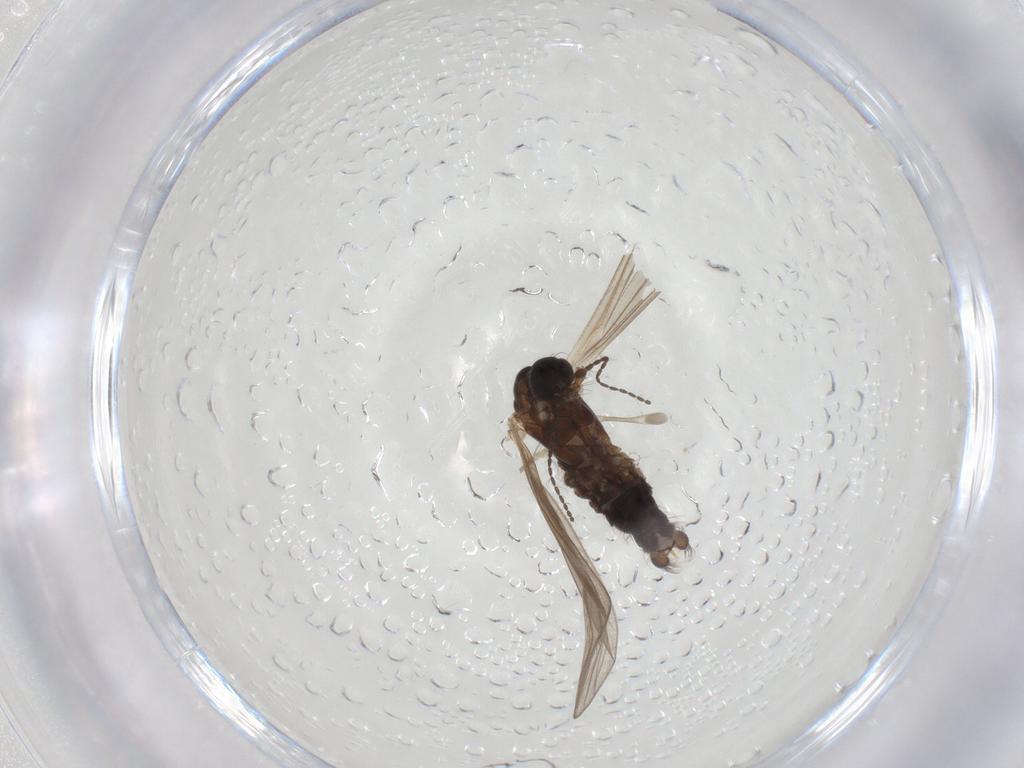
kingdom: Animalia
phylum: Arthropoda
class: Insecta
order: Diptera
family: Limoniidae
